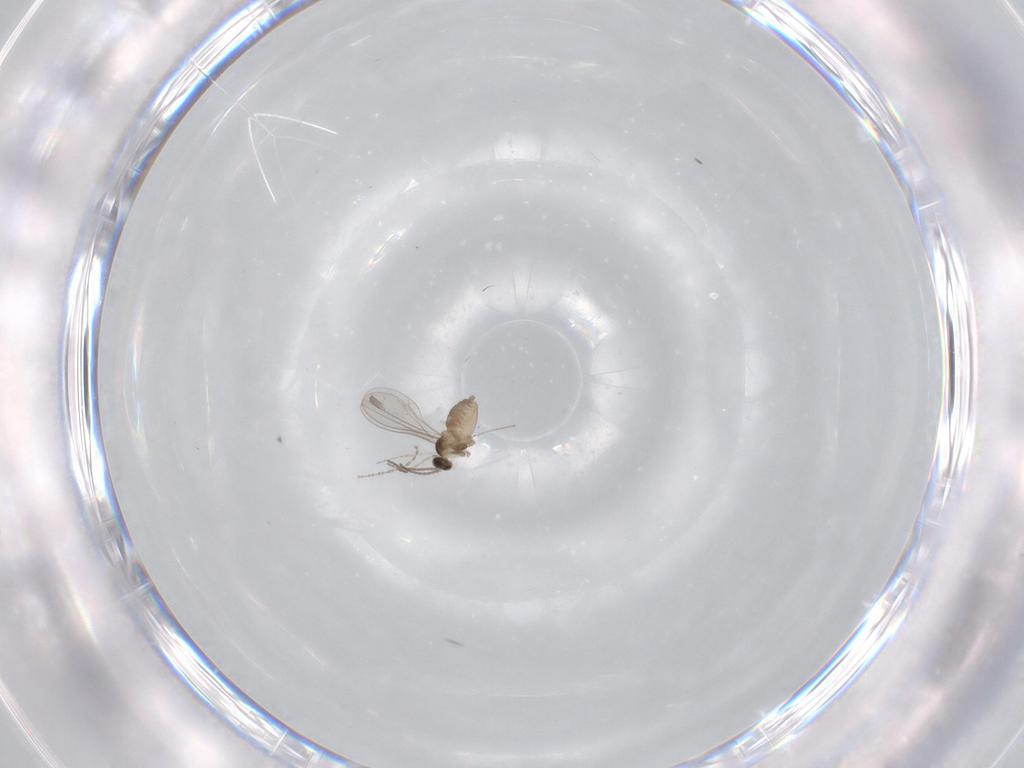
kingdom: Animalia
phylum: Arthropoda
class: Insecta
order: Diptera
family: Cecidomyiidae
